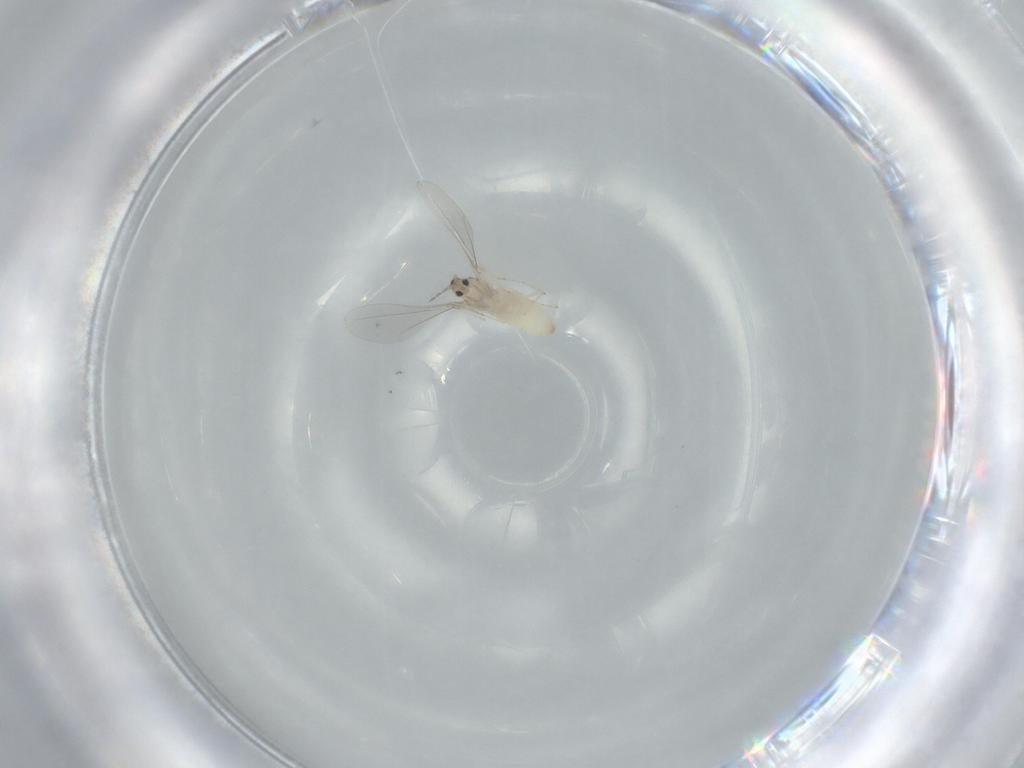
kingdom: Animalia
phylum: Arthropoda
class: Insecta
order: Diptera
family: Cecidomyiidae
